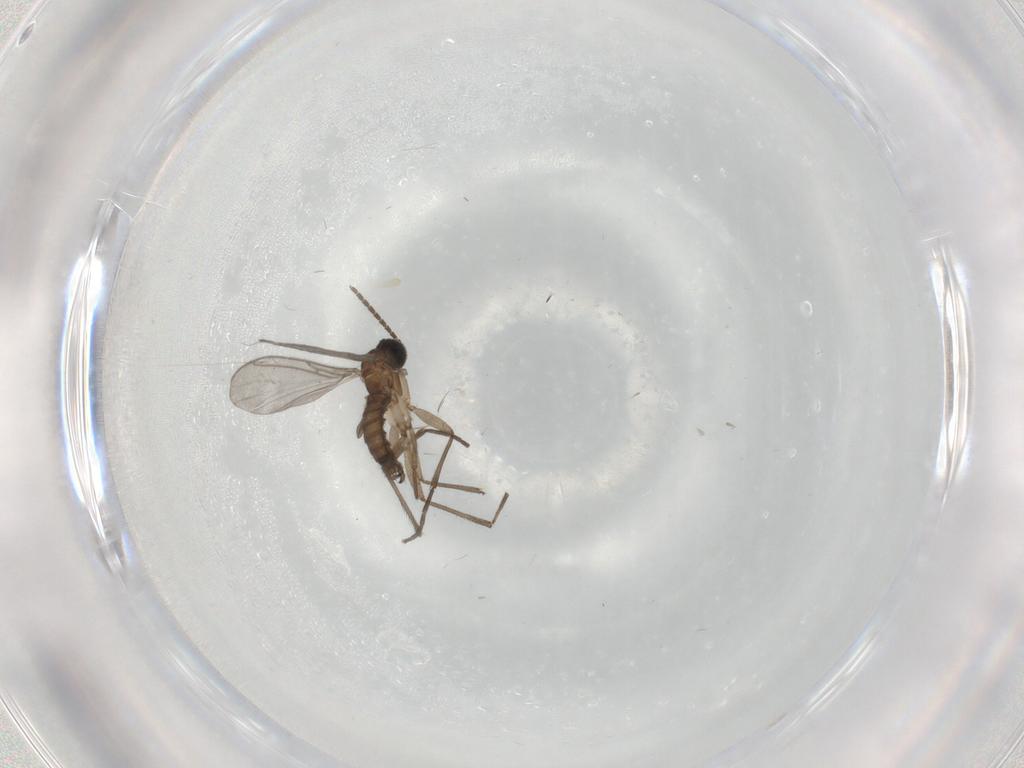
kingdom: Animalia
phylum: Arthropoda
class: Insecta
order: Diptera
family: Sciaridae
